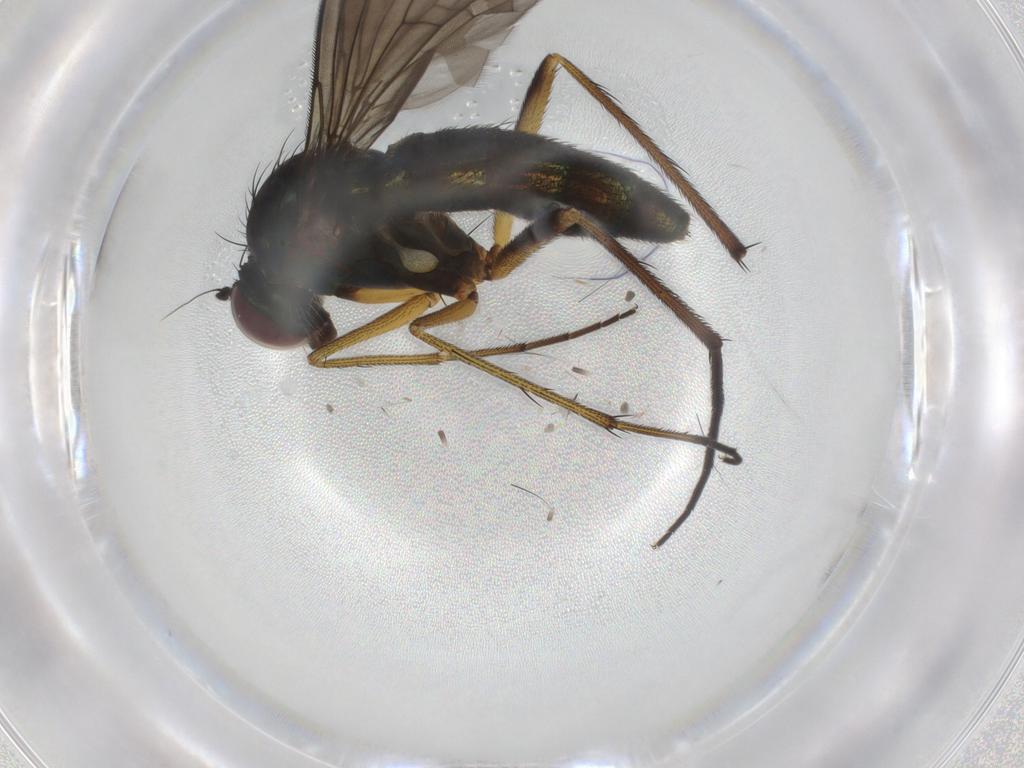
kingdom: Animalia
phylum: Arthropoda
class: Insecta
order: Diptera
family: Dolichopodidae
